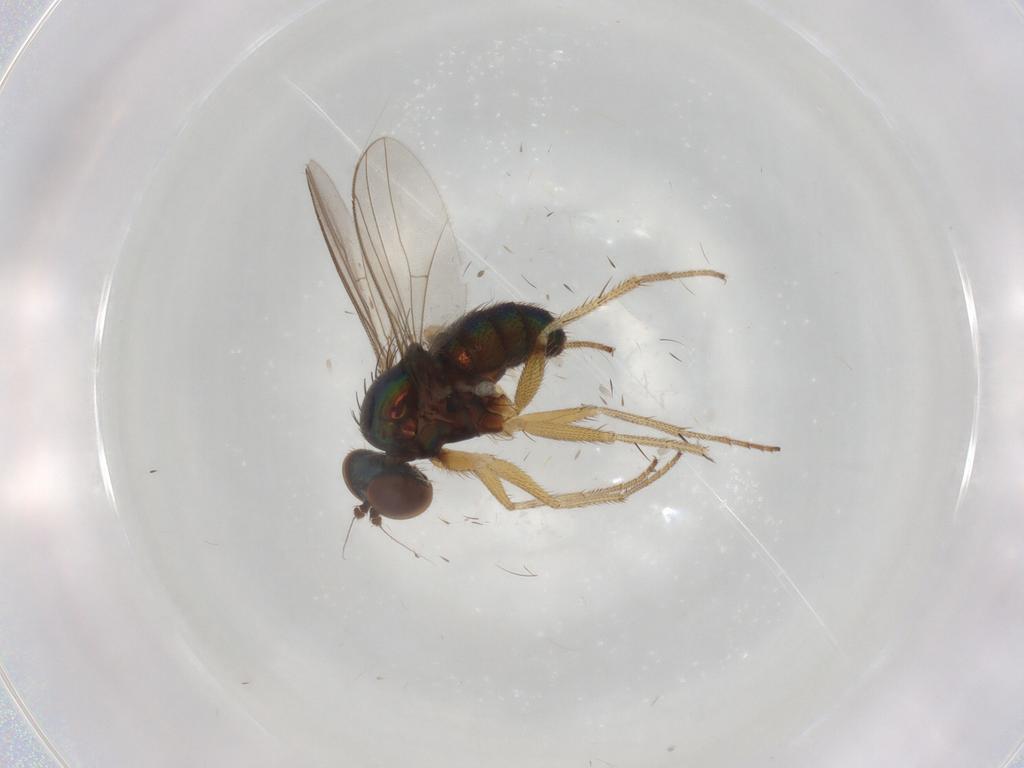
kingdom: Animalia
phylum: Arthropoda
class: Insecta
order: Diptera
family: Dolichopodidae
